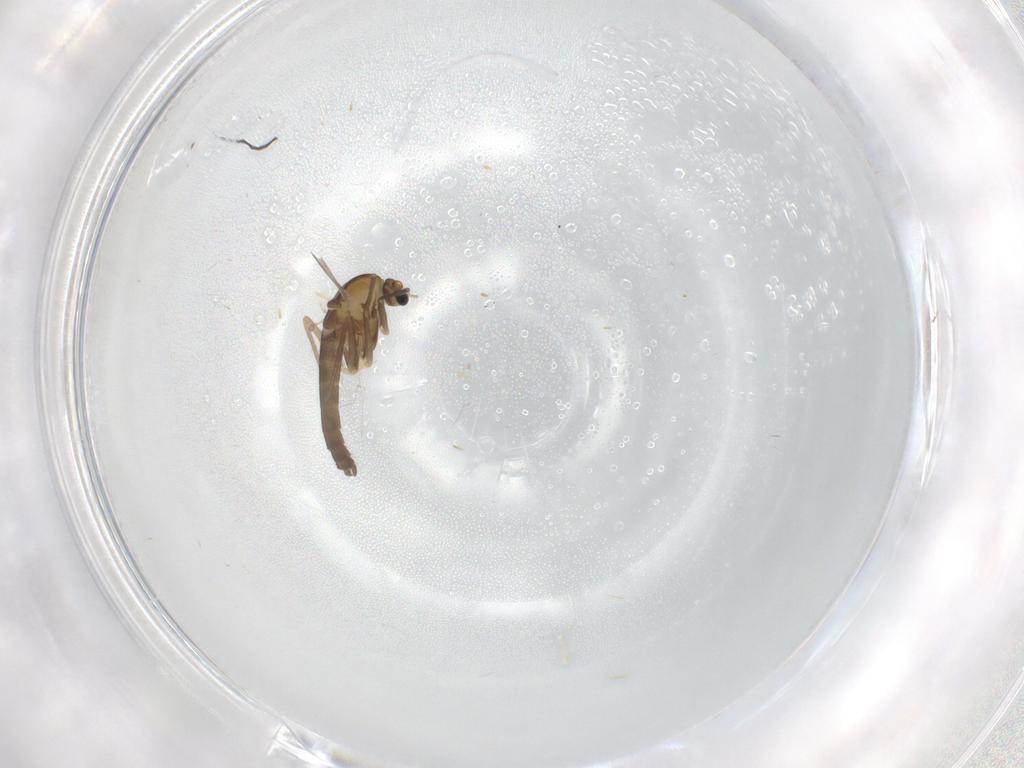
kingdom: Animalia
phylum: Arthropoda
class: Insecta
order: Diptera
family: Chironomidae
